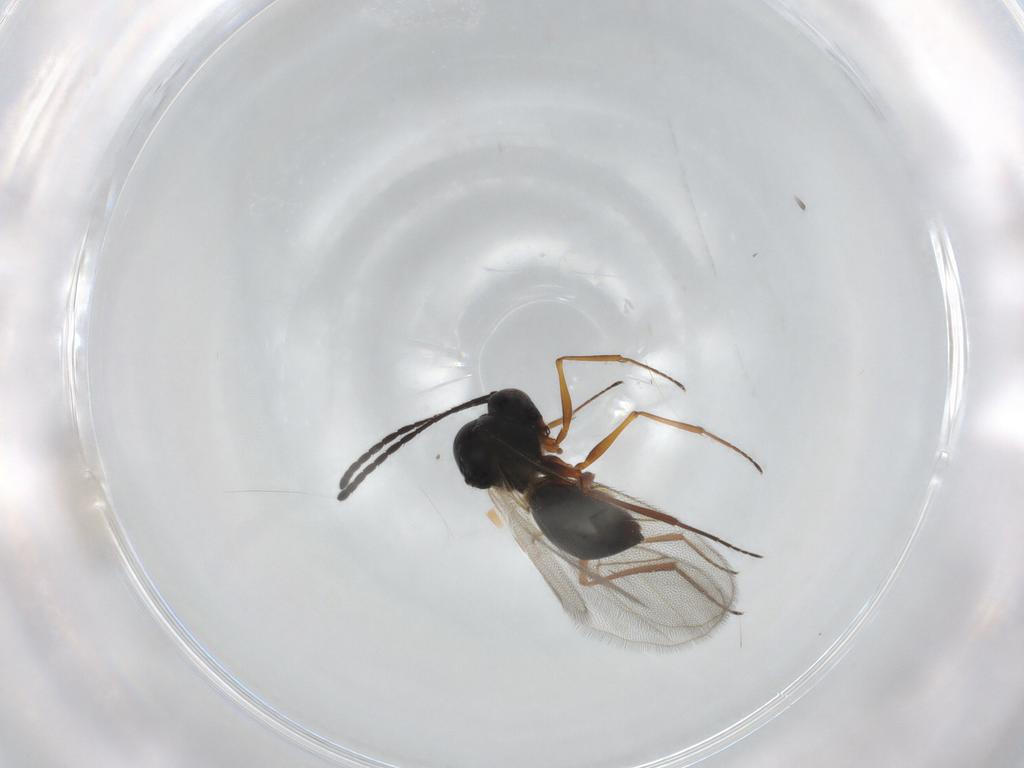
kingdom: Animalia
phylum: Arthropoda
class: Insecta
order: Hymenoptera
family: Figitidae
